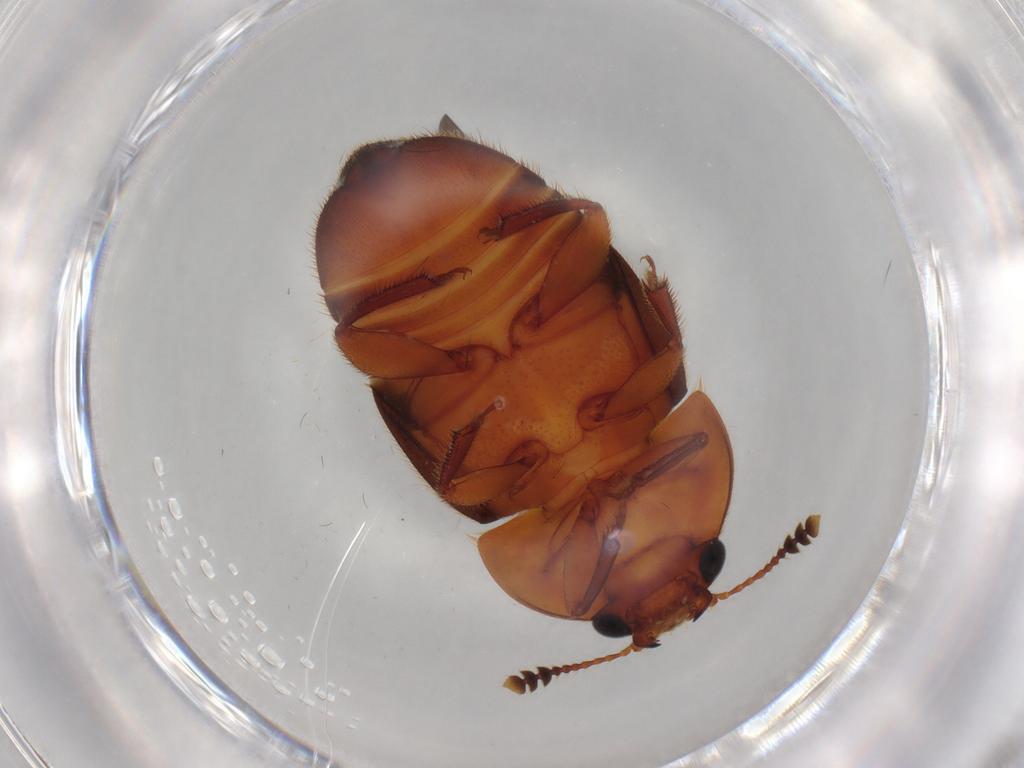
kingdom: Animalia
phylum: Arthropoda
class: Insecta
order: Coleoptera
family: Nitidulidae
